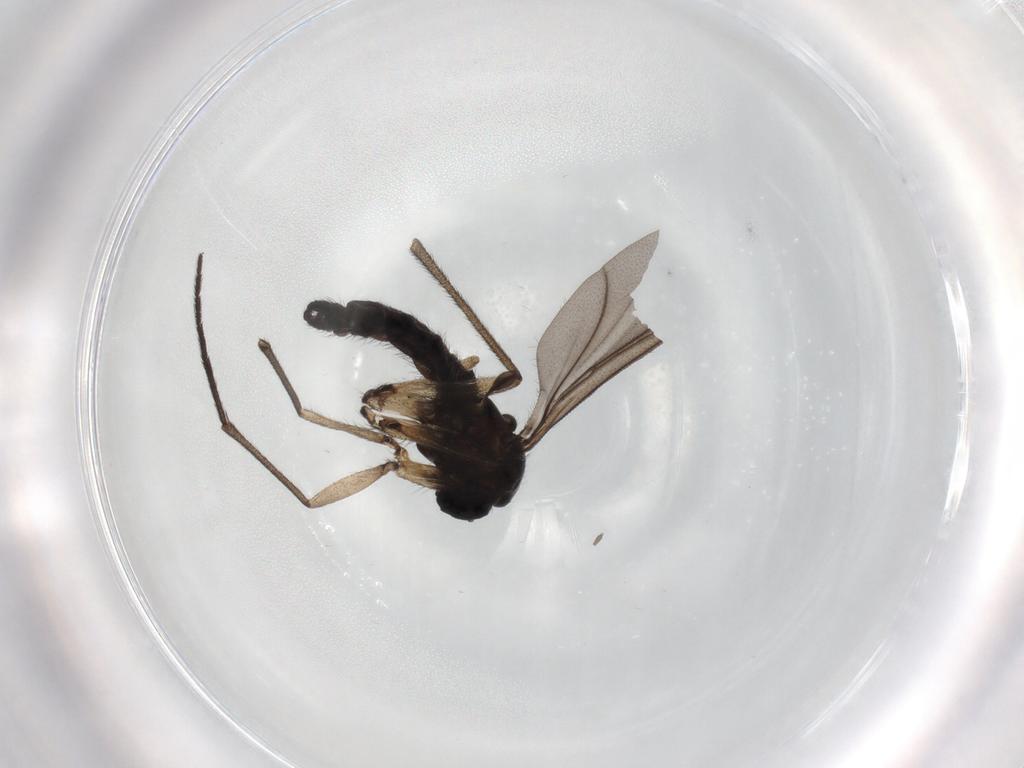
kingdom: Animalia
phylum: Arthropoda
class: Insecta
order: Diptera
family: Sciaridae
